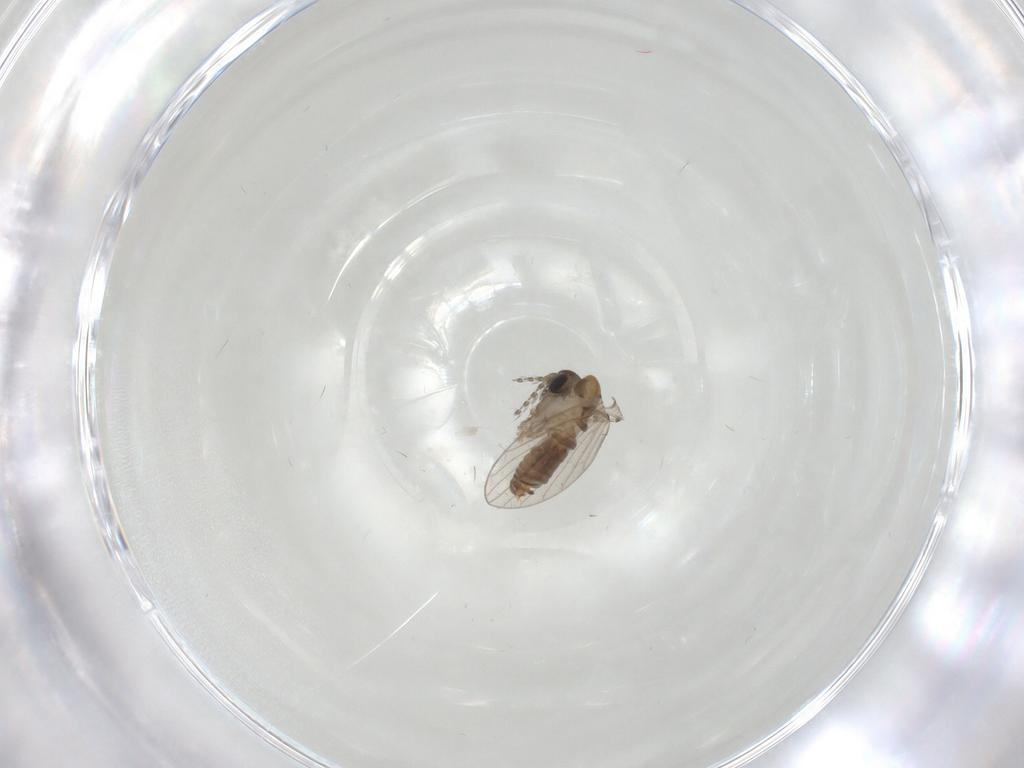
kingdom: Animalia
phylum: Arthropoda
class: Insecta
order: Diptera
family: Psychodidae
